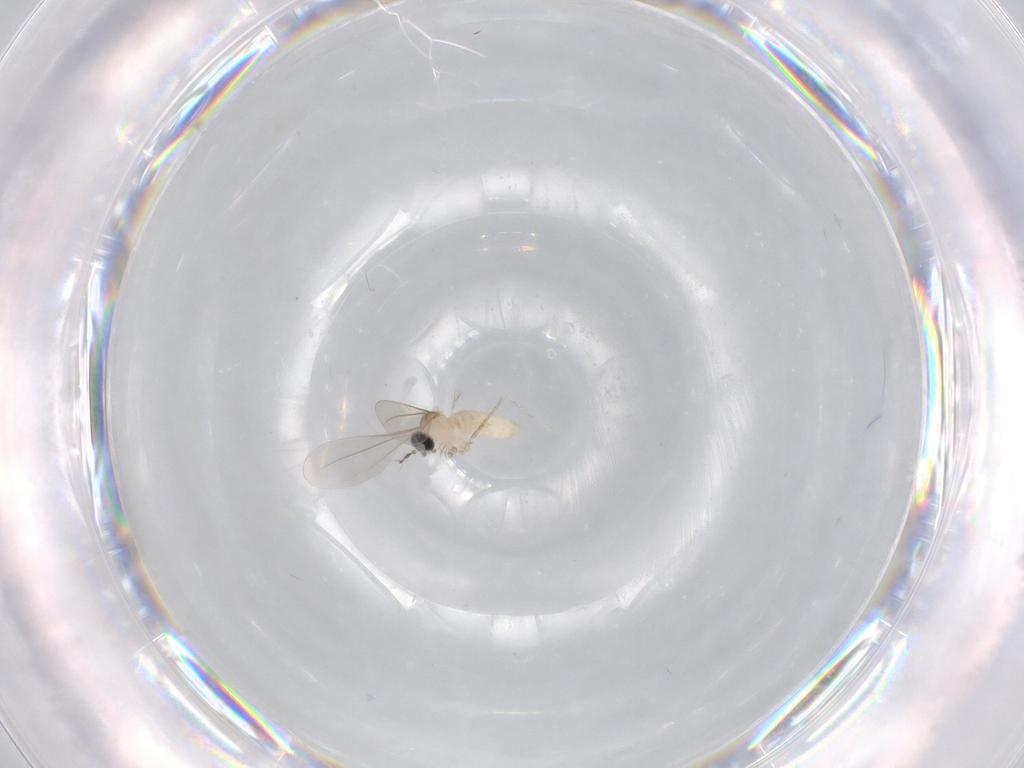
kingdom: Animalia
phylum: Arthropoda
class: Insecta
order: Diptera
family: Cecidomyiidae
